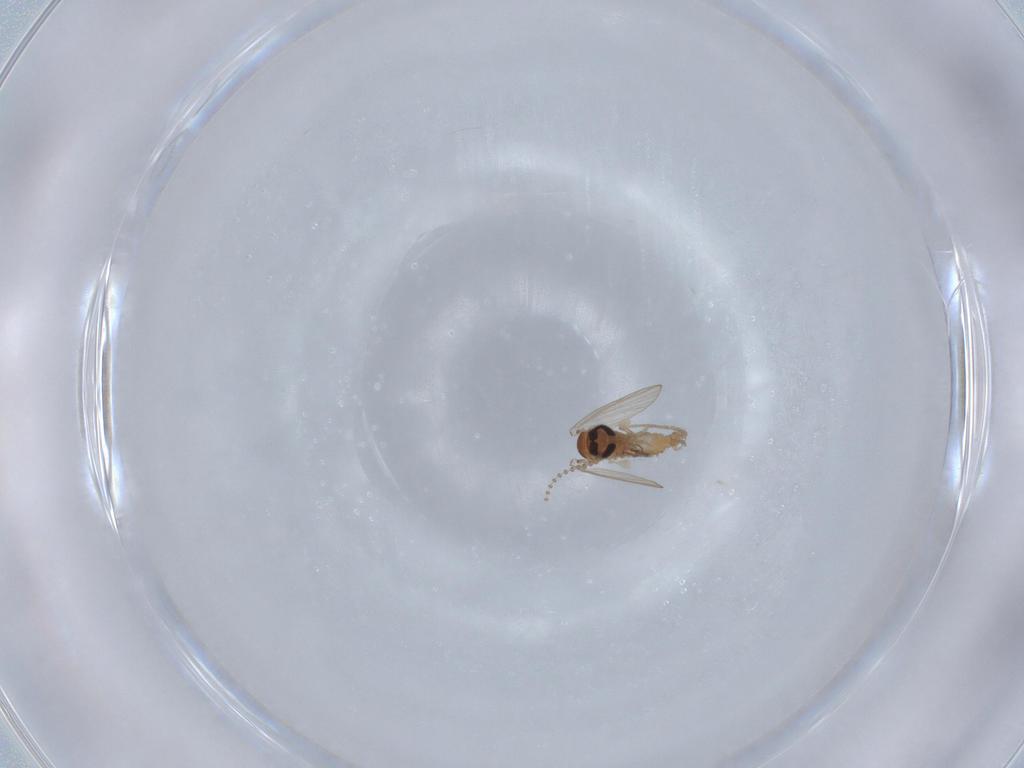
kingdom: Animalia
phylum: Arthropoda
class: Insecta
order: Diptera
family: Psychodidae
